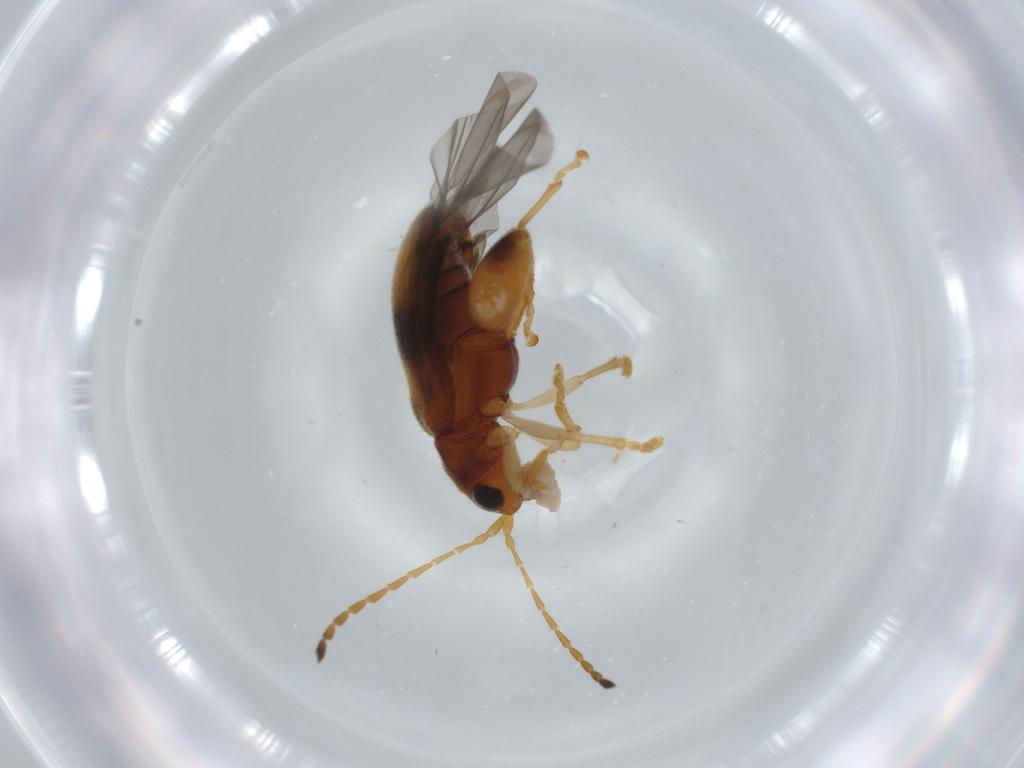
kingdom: Animalia
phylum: Arthropoda
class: Insecta
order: Coleoptera
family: Chrysomelidae
